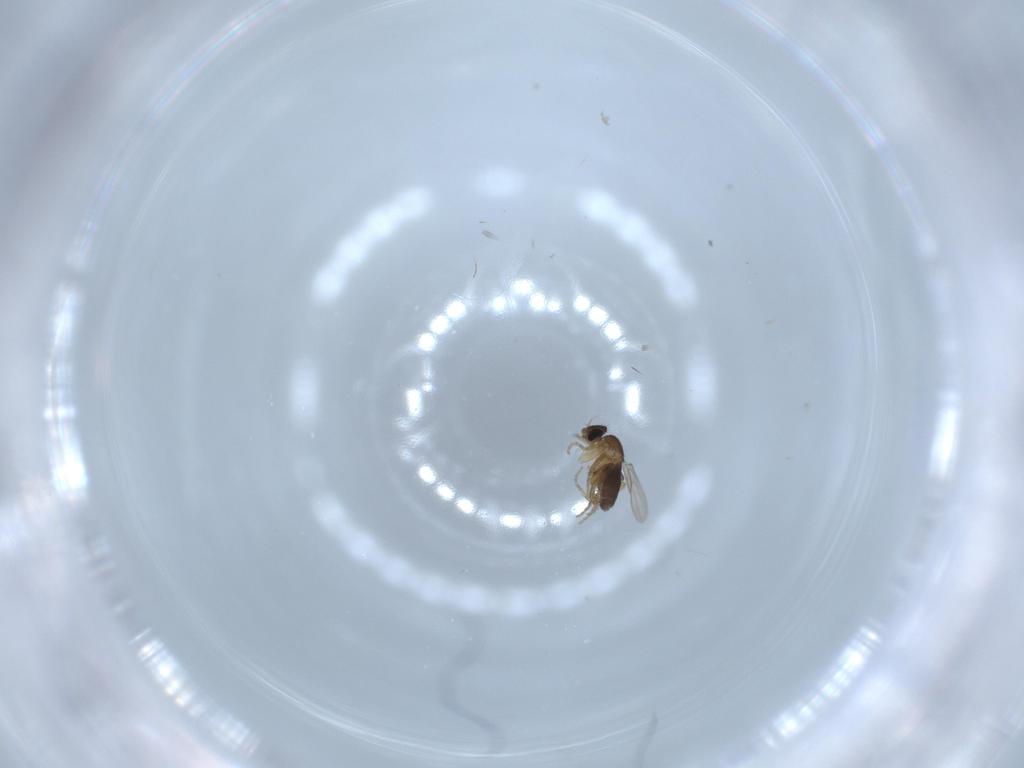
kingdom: Animalia
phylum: Arthropoda
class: Insecta
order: Diptera
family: Phoridae
